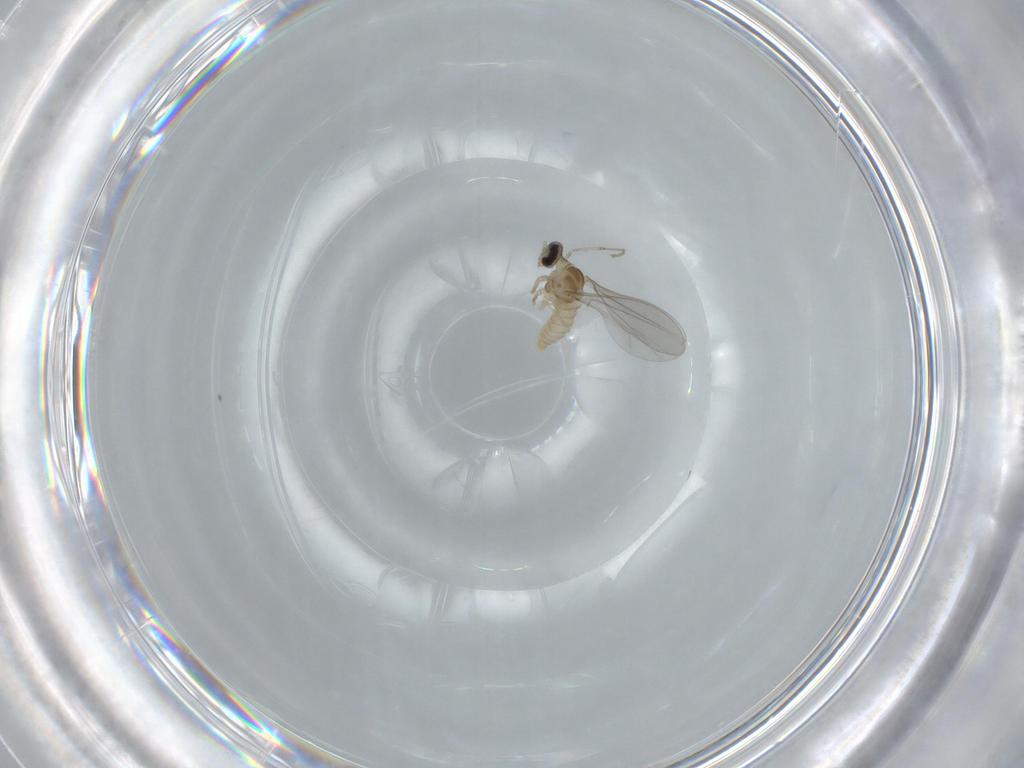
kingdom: Animalia
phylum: Arthropoda
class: Insecta
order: Diptera
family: Cecidomyiidae
